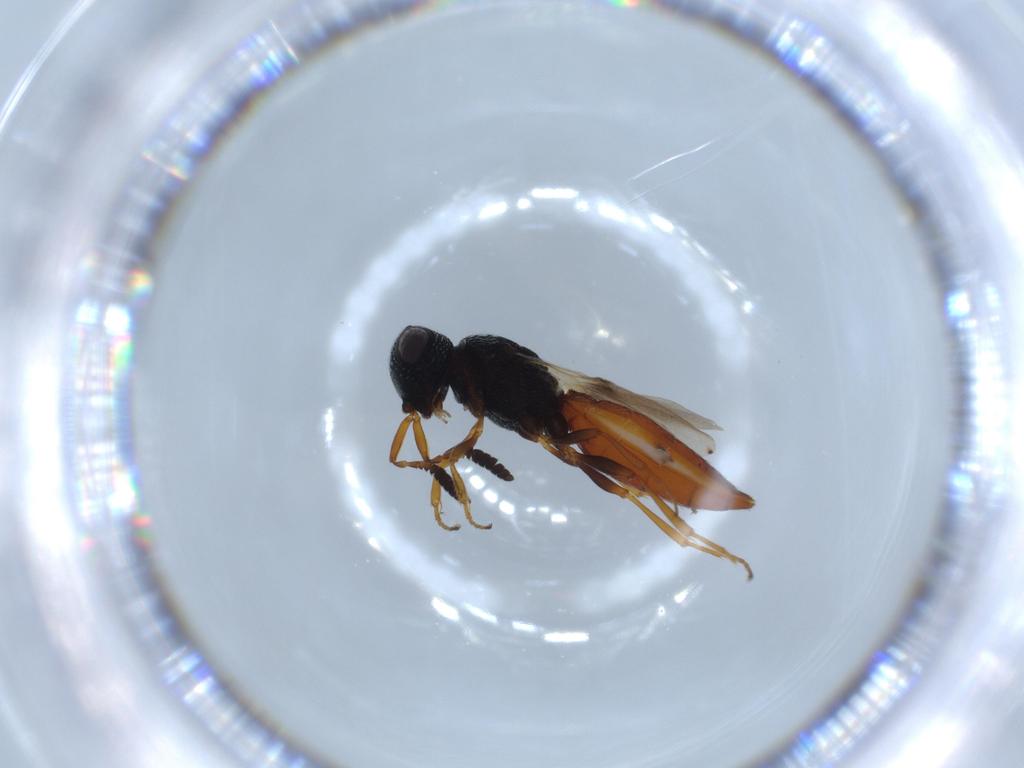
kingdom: Animalia
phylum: Arthropoda
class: Insecta
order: Hymenoptera
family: Scelionidae
